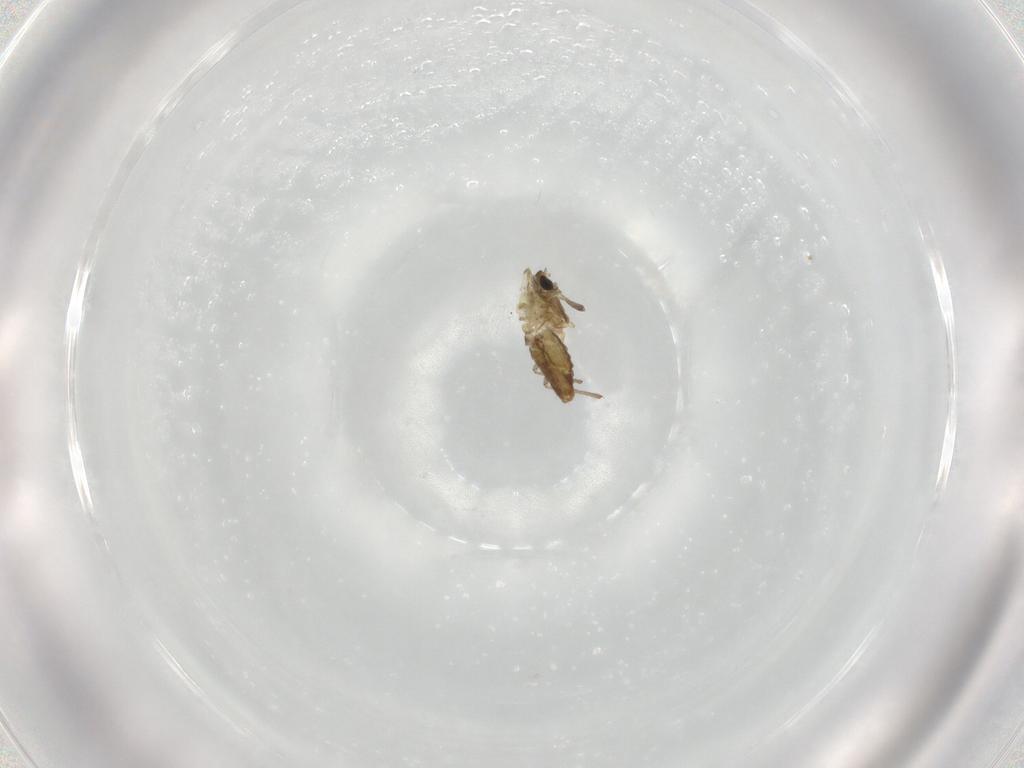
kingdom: Animalia
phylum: Arthropoda
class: Insecta
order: Diptera
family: Chironomidae
